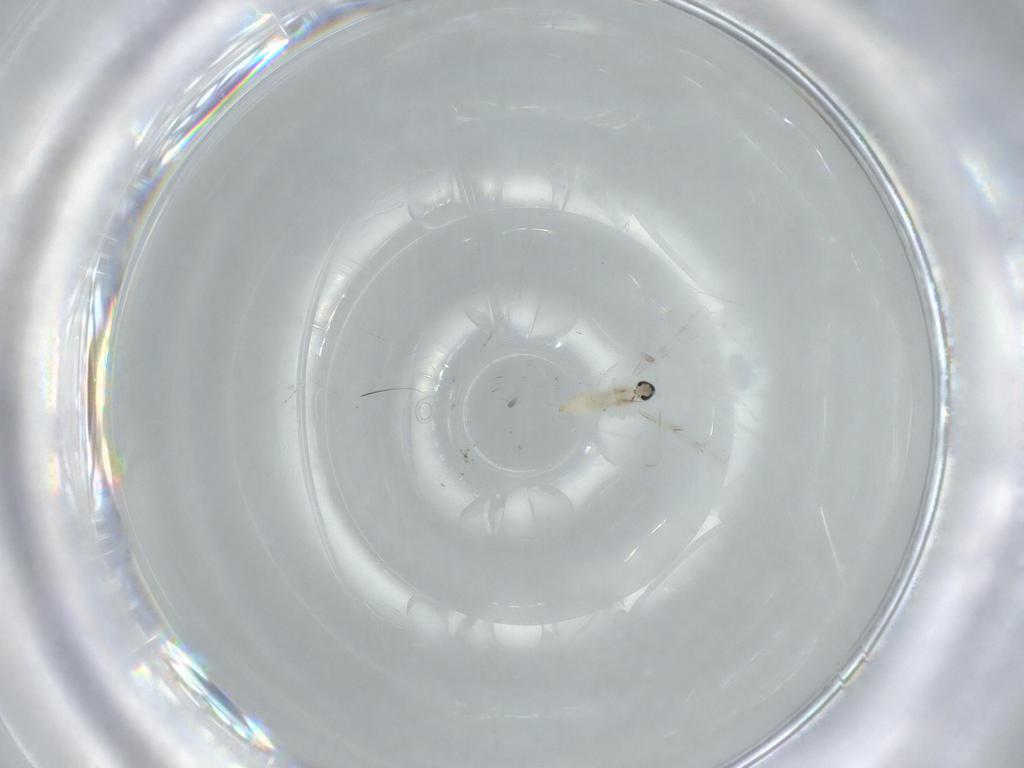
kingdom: Animalia
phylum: Arthropoda
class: Insecta
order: Diptera
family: Cecidomyiidae
